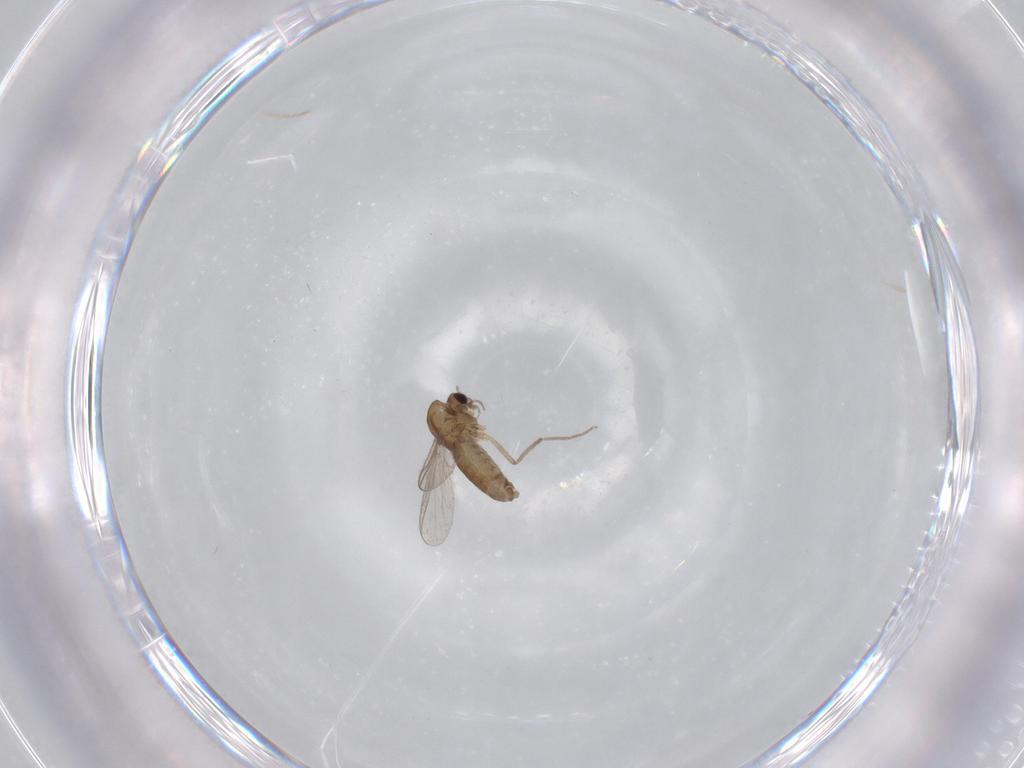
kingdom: Animalia
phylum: Arthropoda
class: Insecta
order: Diptera
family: Chironomidae
